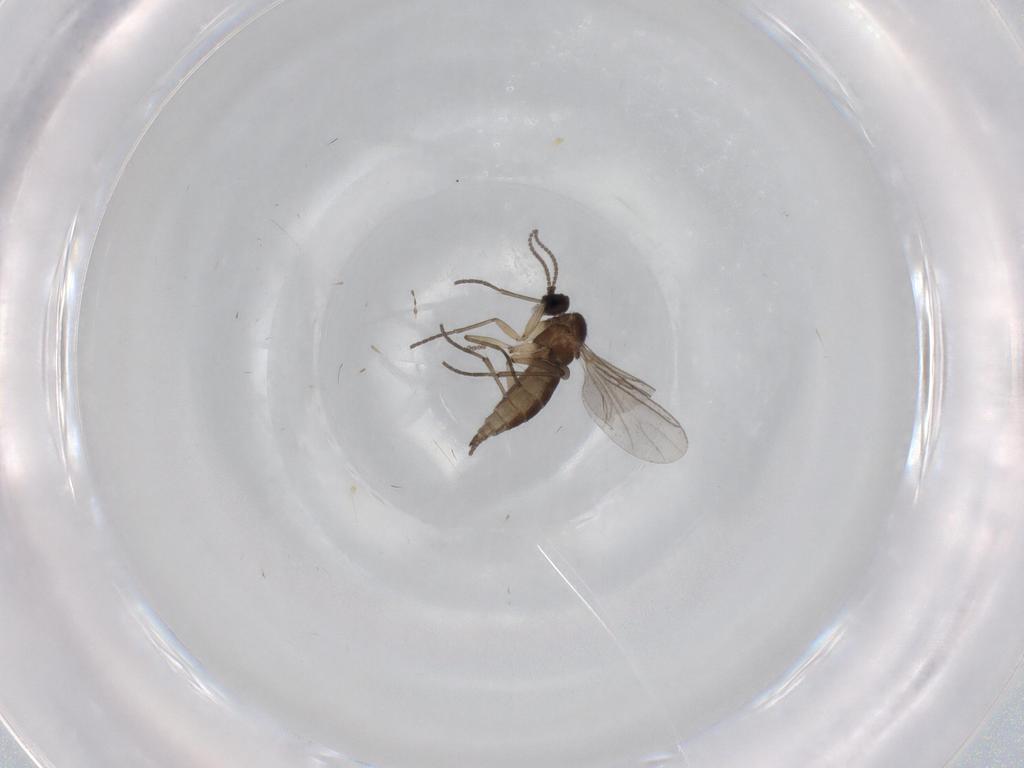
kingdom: Animalia
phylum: Arthropoda
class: Insecta
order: Diptera
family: Sciaridae
